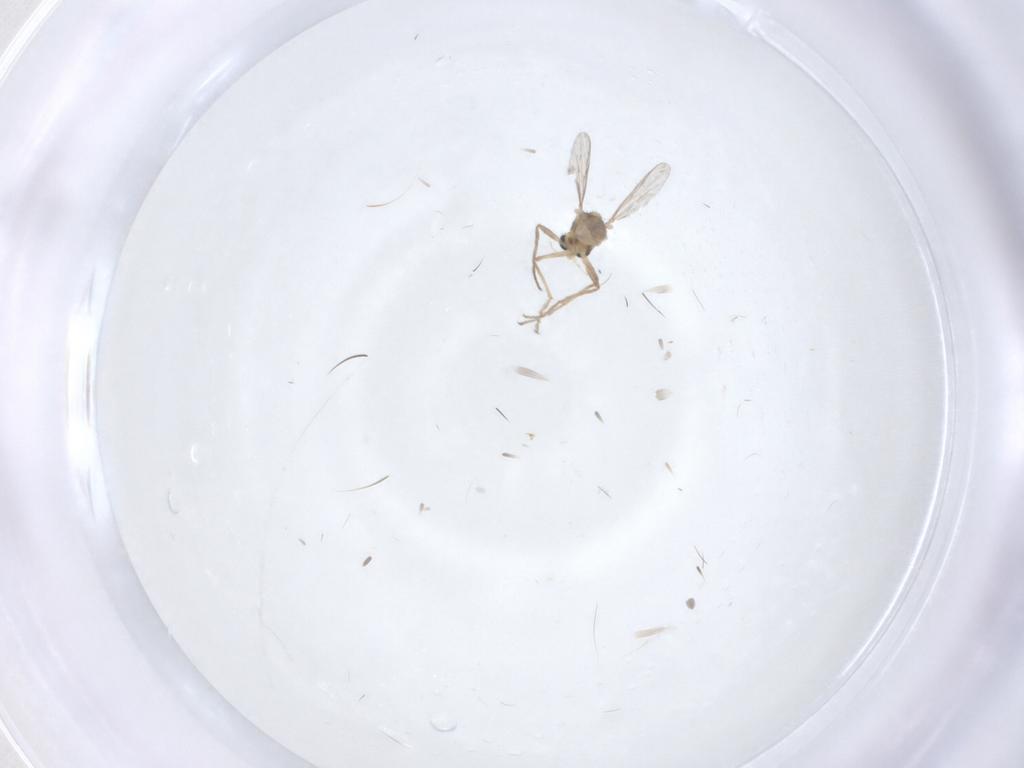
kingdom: Animalia
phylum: Arthropoda
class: Insecta
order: Diptera
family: Chironomidae
